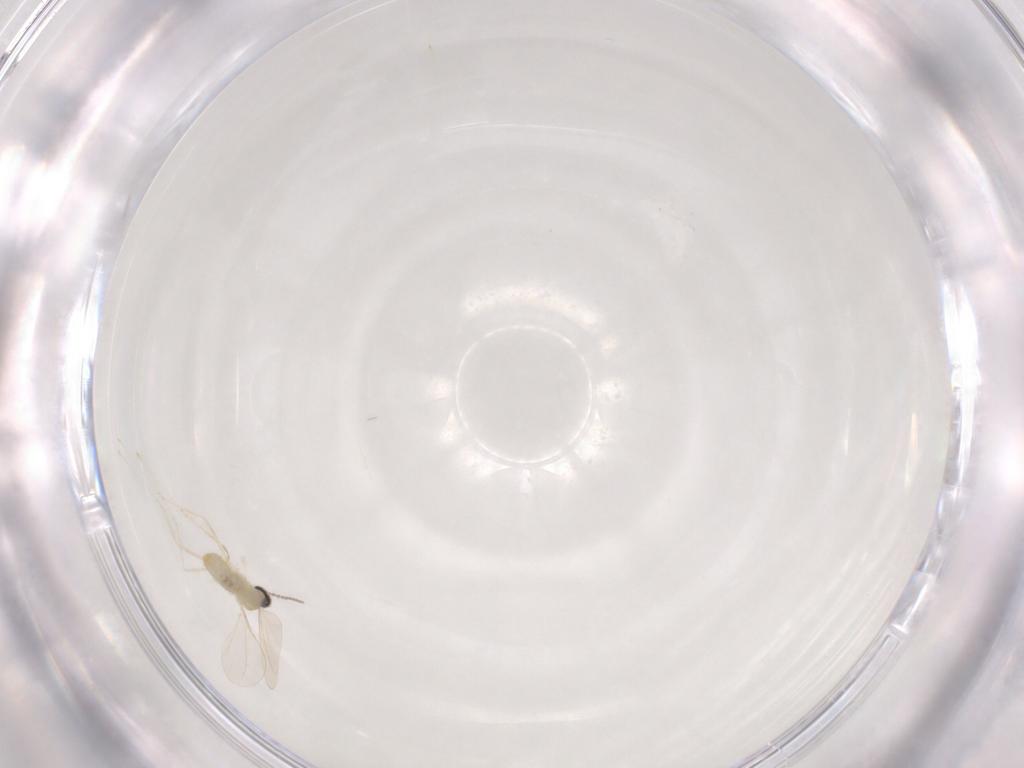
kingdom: Animalia
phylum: Arthropoda
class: Insecta
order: Diptera
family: Cecidomyiidae
